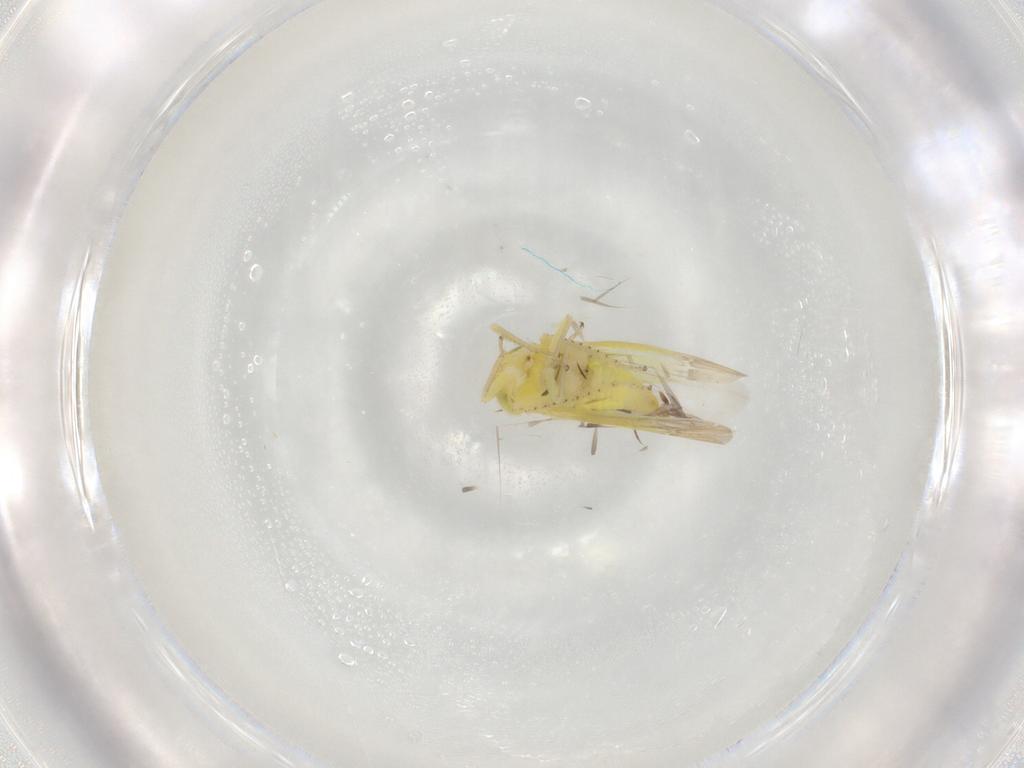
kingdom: Animalia
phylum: Arthropoda
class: Insecta
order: Hemiptera
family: Cicadellidae
